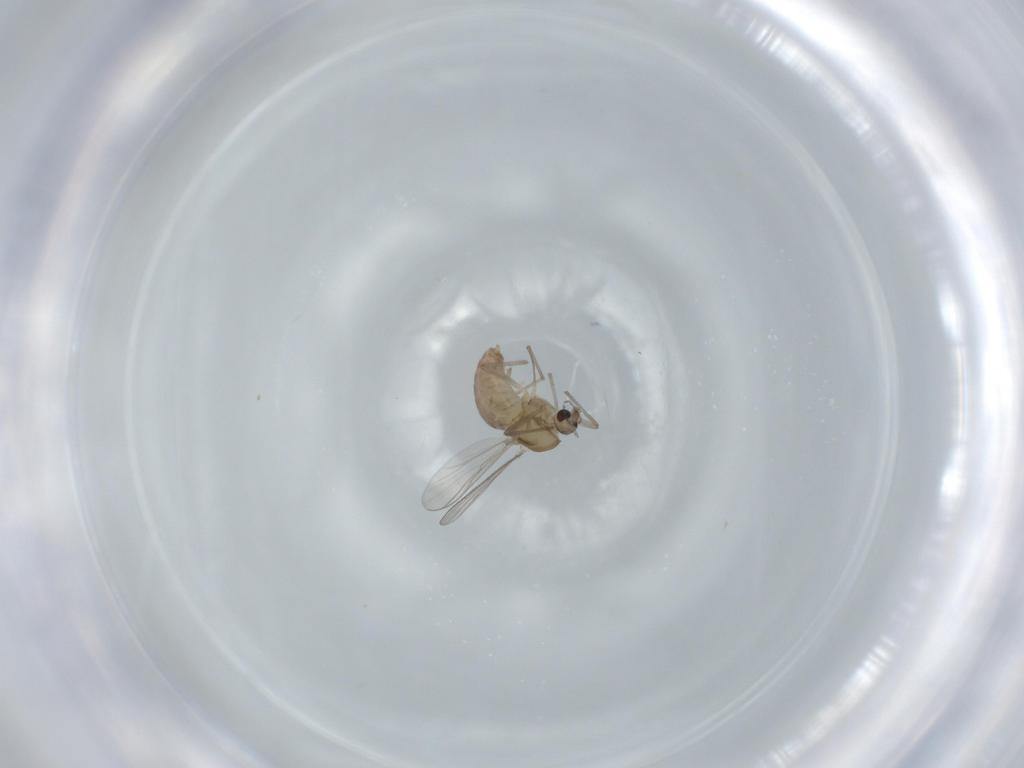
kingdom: Animalia
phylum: Arthropoda
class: Insecta
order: Diptera
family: Chironomidae
